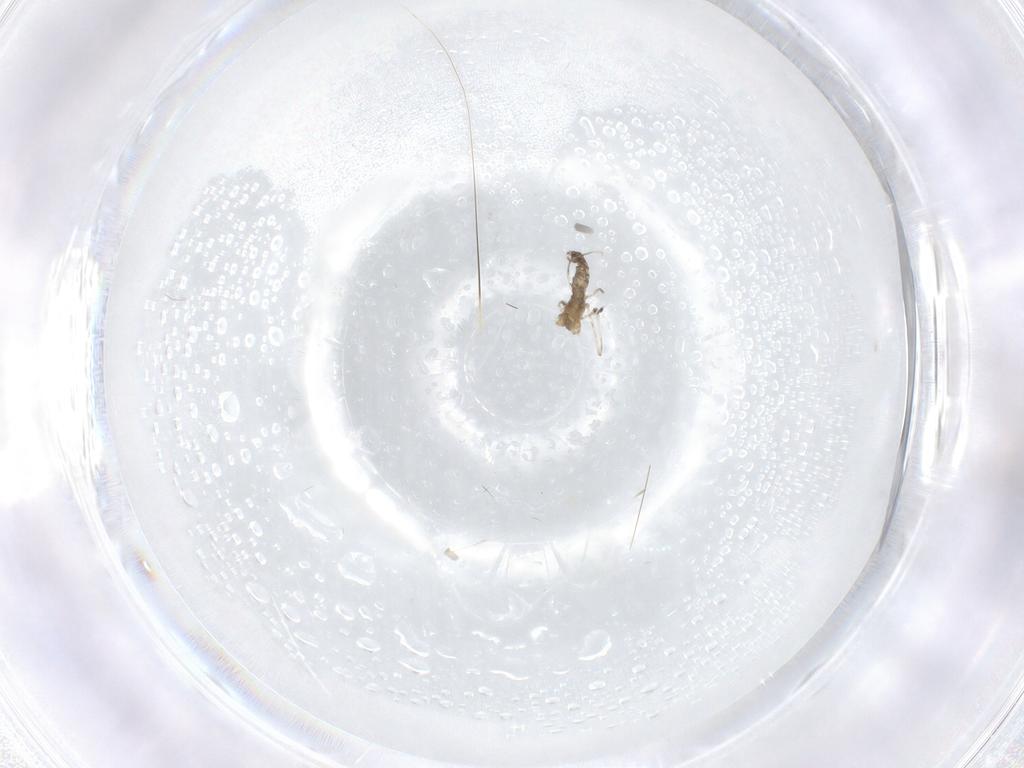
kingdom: Animalia
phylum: Arthropoda
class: Insecta
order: Diptera
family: Cecidomyiidae
